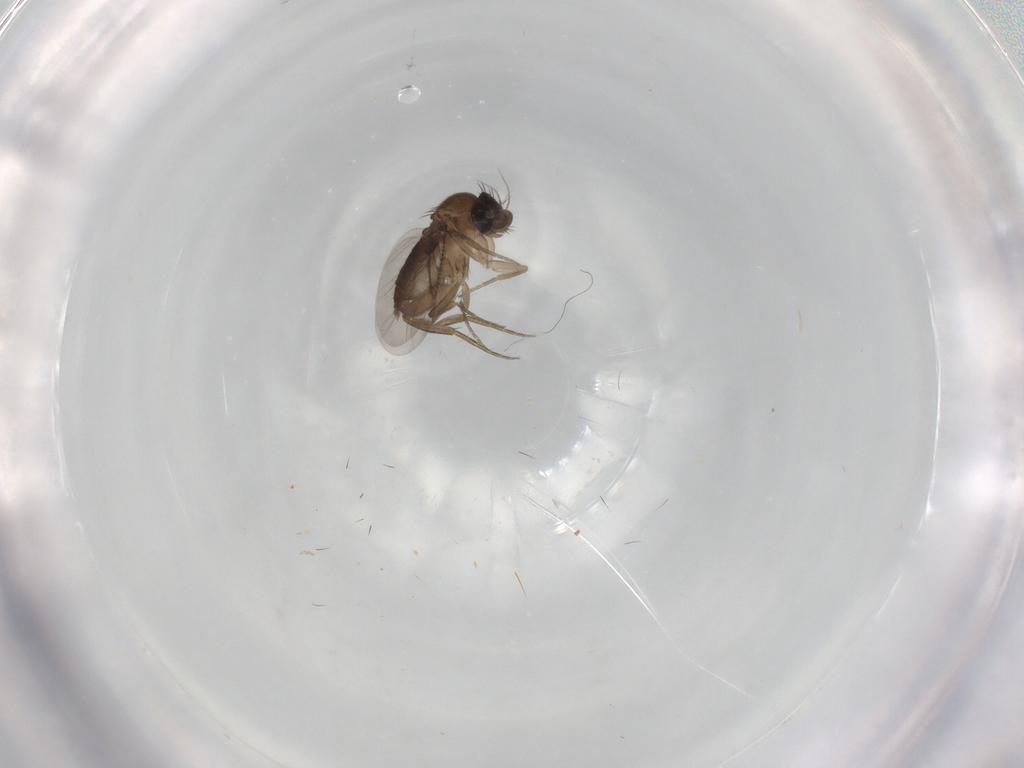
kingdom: Animalia
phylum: Arthropoda
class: Insecta
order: Diptera
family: Phoridae
